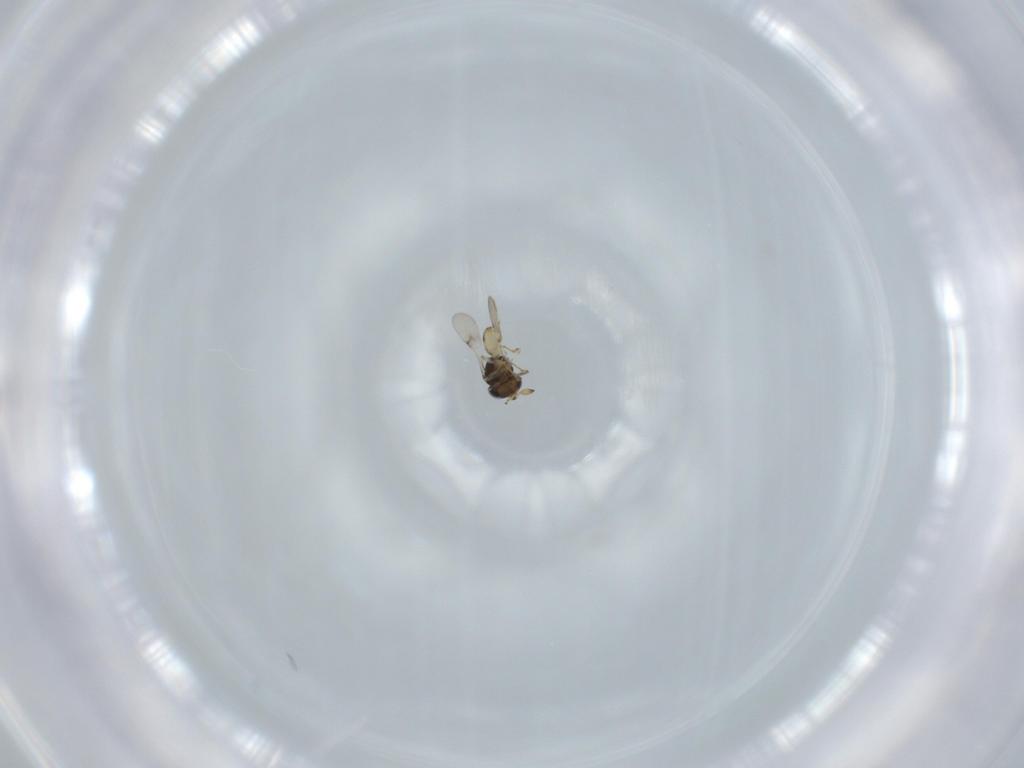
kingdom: Animalia
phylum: Arthropoda
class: Insecta
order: Hymenoptera
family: Scelionidae
